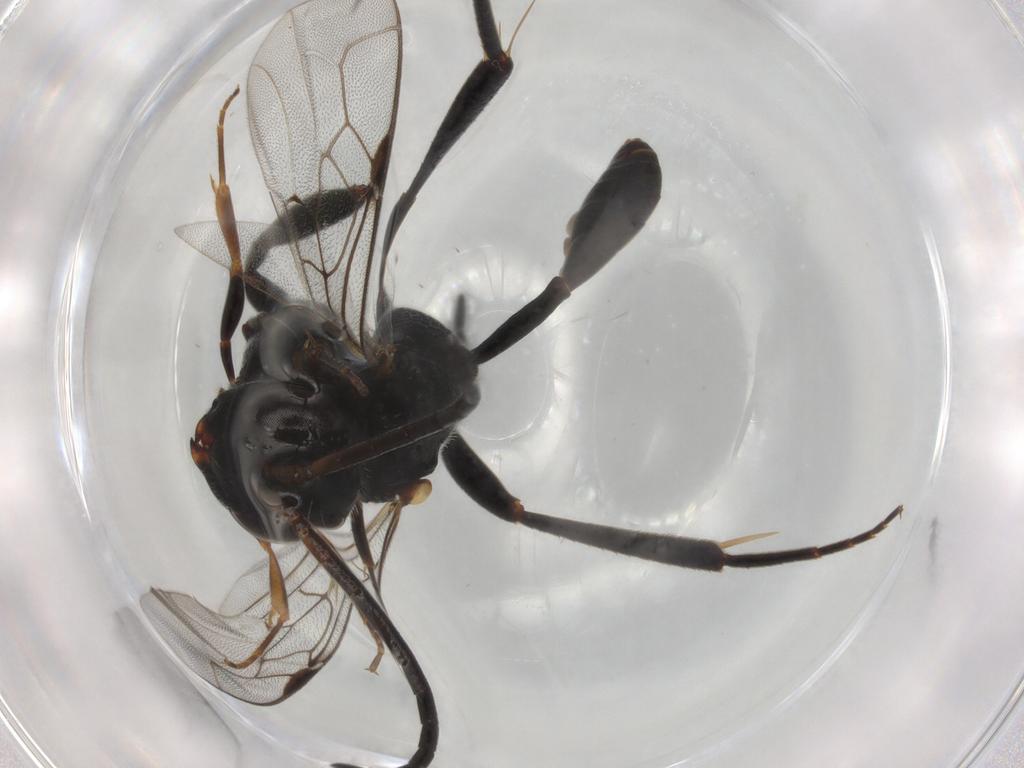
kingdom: Animalia
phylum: Arthropoda
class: Insecta
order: Hymenoptera
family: Scelionidae
